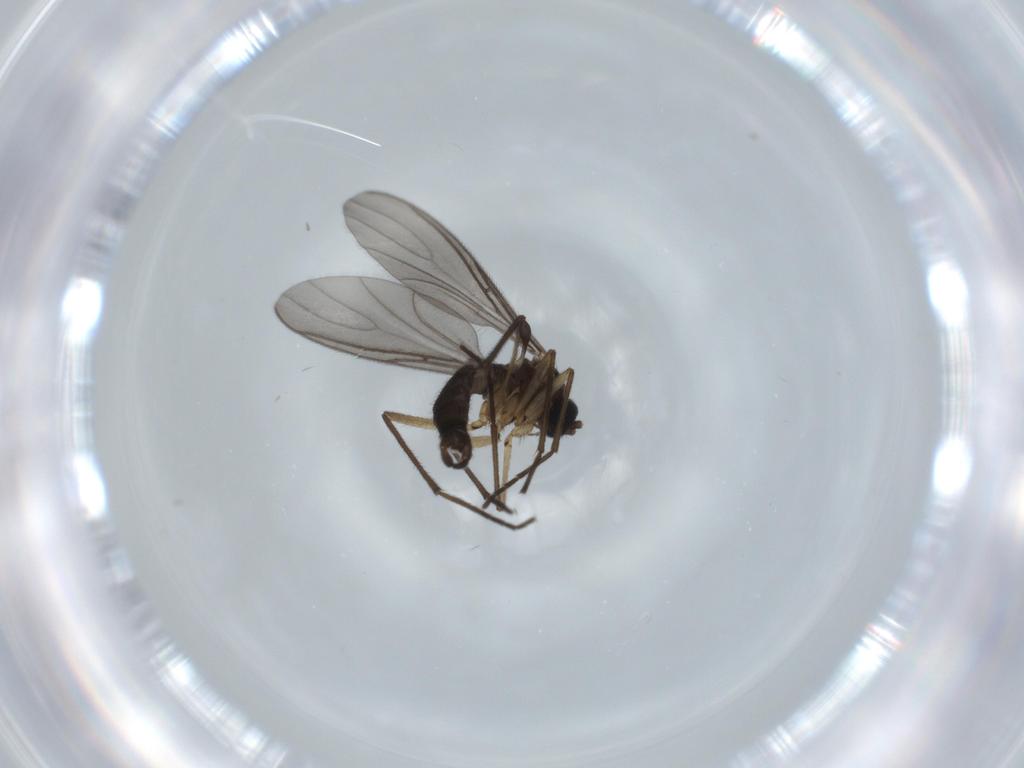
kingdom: Animalia
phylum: Arthropoda
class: Insecta
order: Diptera
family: Sciaridae
